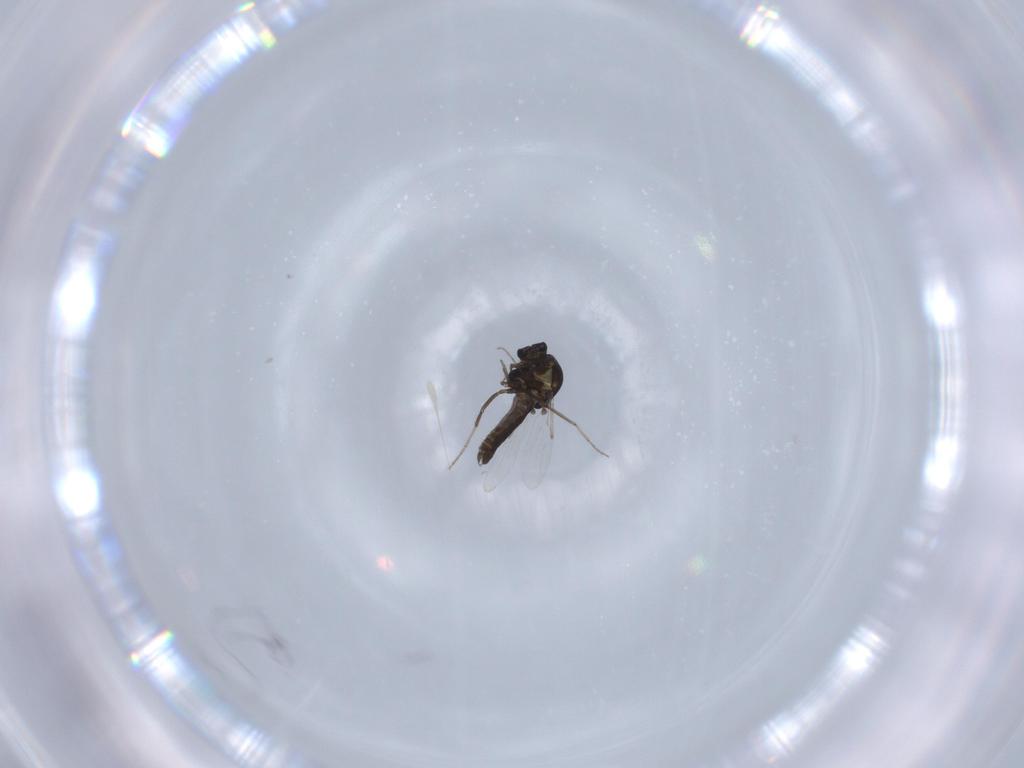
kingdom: Animalia
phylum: Arthropoda
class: Insecta
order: Diptera
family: Ceratopogonidae
